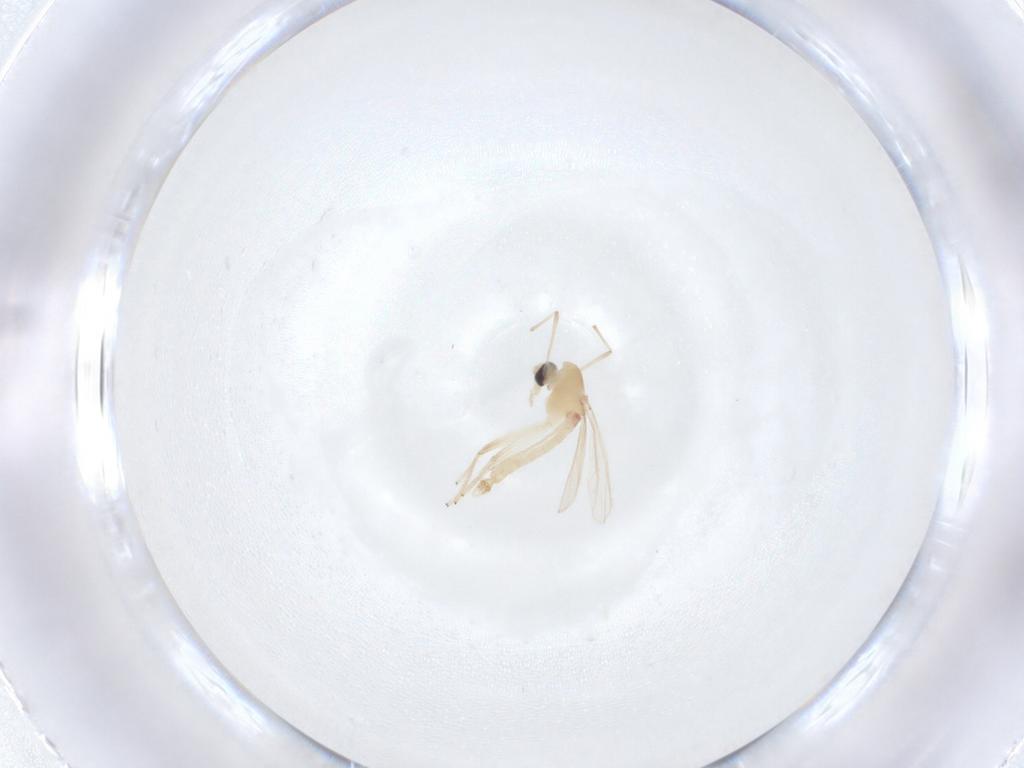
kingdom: Animalia
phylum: Arthropoda
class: Insecta
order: Diptera
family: Chironomidae
